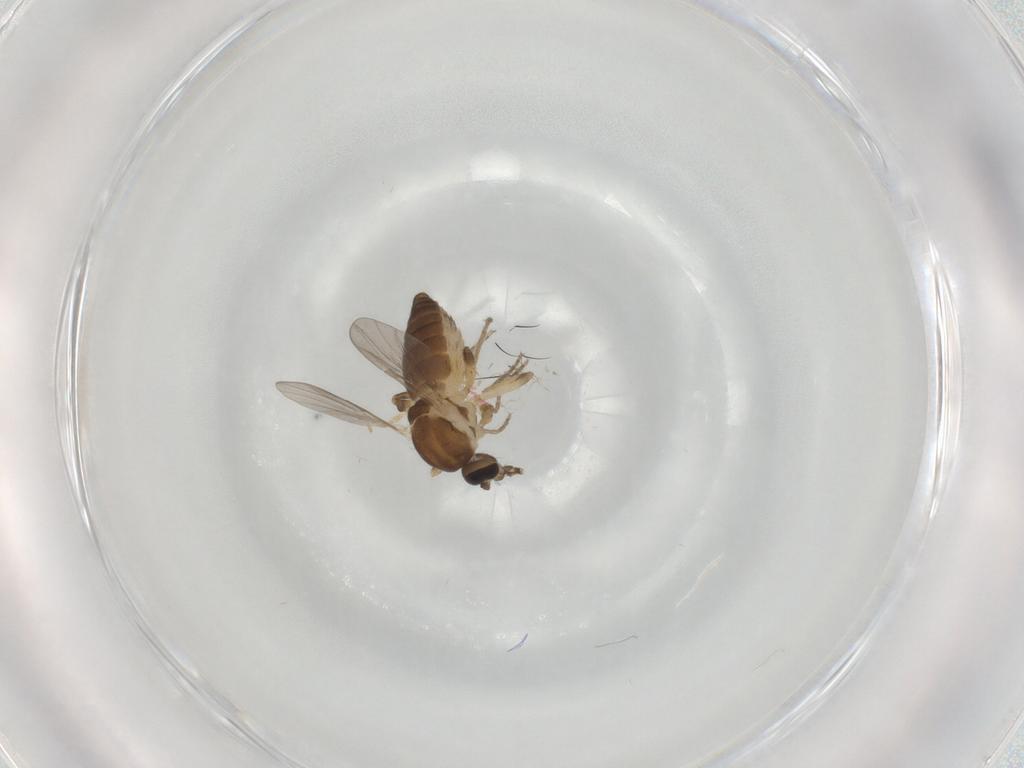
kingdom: Animalia
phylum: Arthropoda
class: Insecta
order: Diptera
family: Ceratopogonidae
